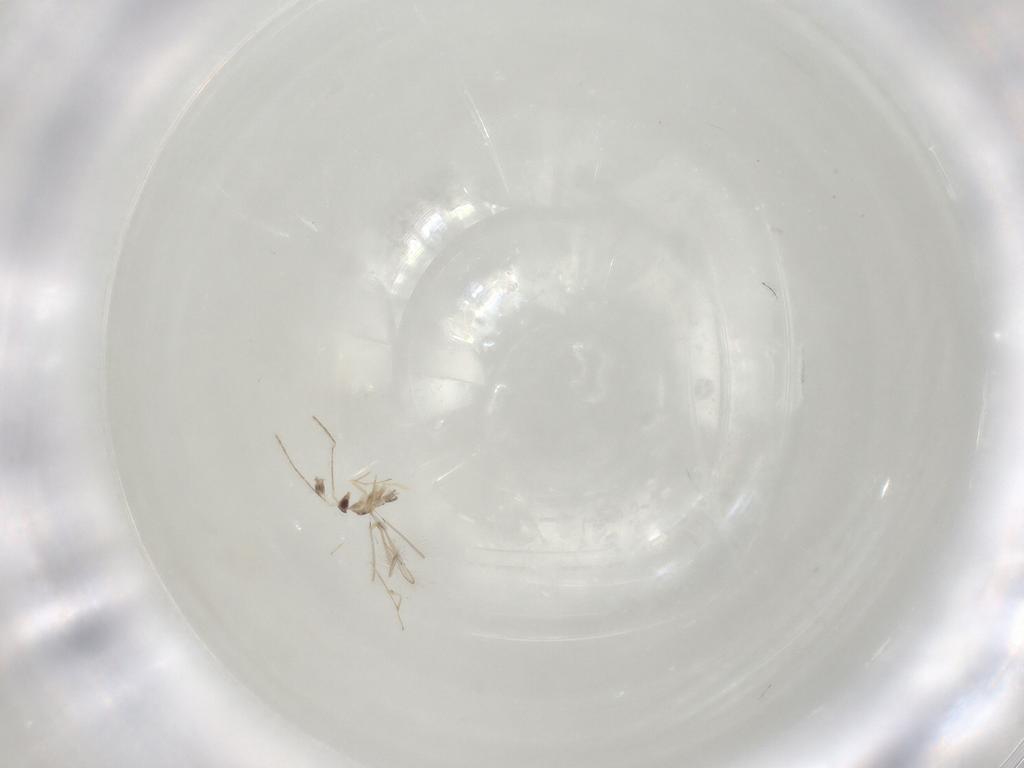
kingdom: Animalia
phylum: Arthropoda
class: Insecta
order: Hymenoptera
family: Mymaridae
